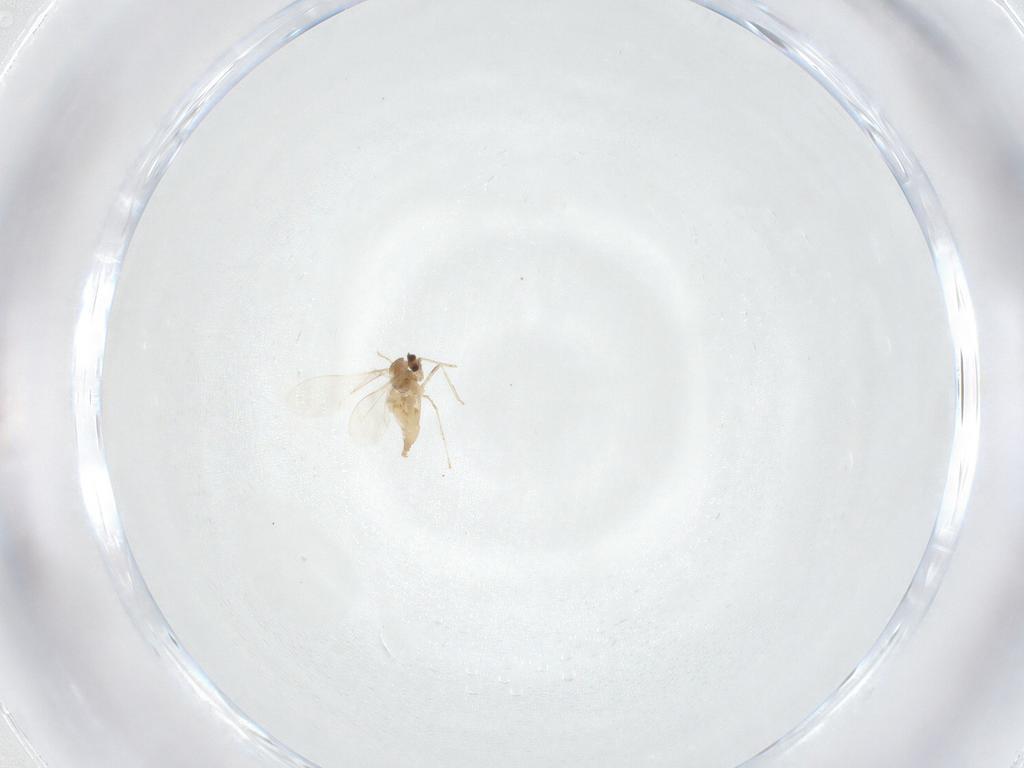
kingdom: Animalia
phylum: Arthropoda
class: Insecta
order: Diptera
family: Cecidomyiidae
